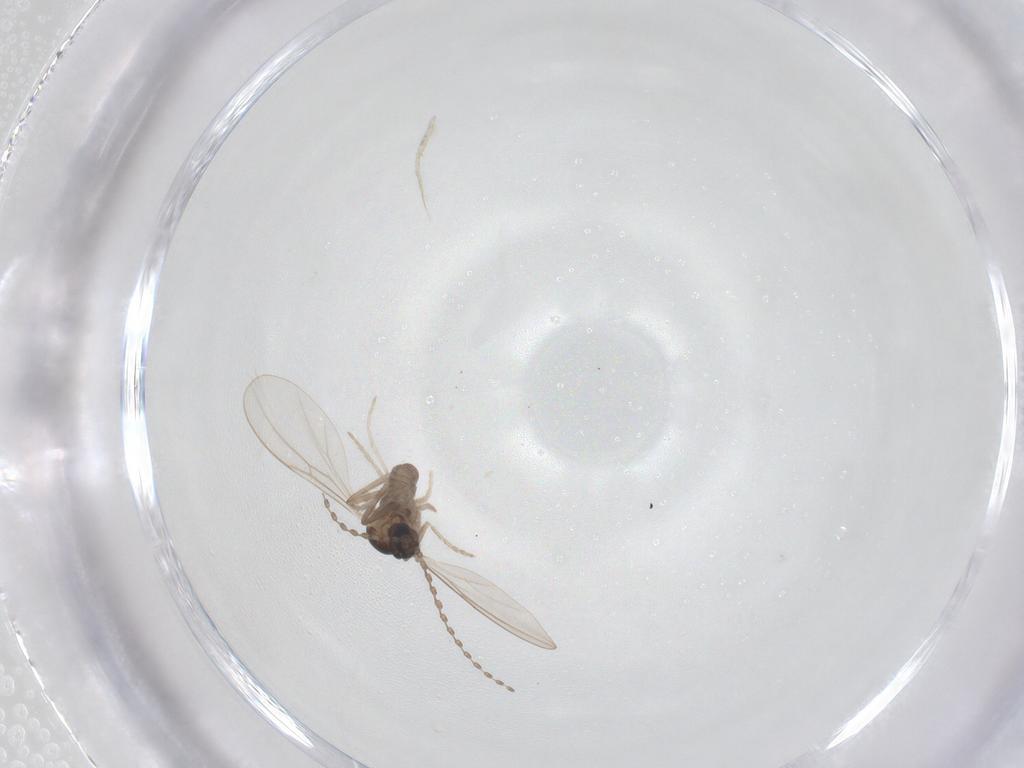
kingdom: Animalia
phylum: Arthropoda
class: Insecta
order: Diptera
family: Cecidomyiidae
